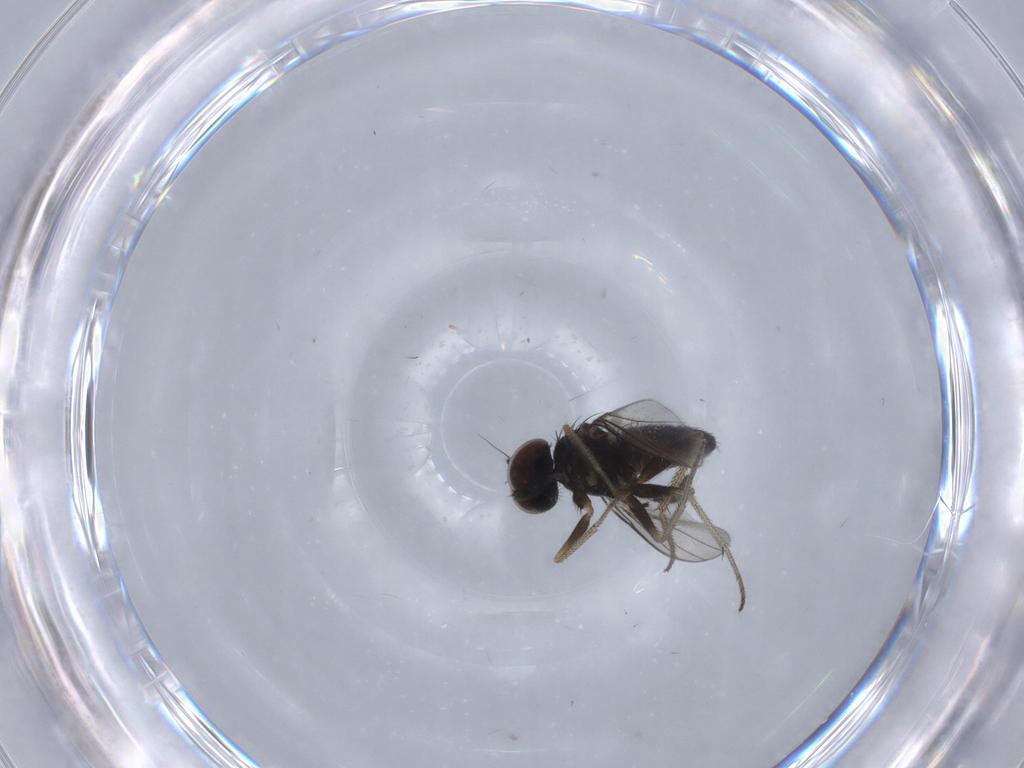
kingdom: Animalia
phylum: Arthropoda
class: Insecta
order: Diptera
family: Dolichopodidae
